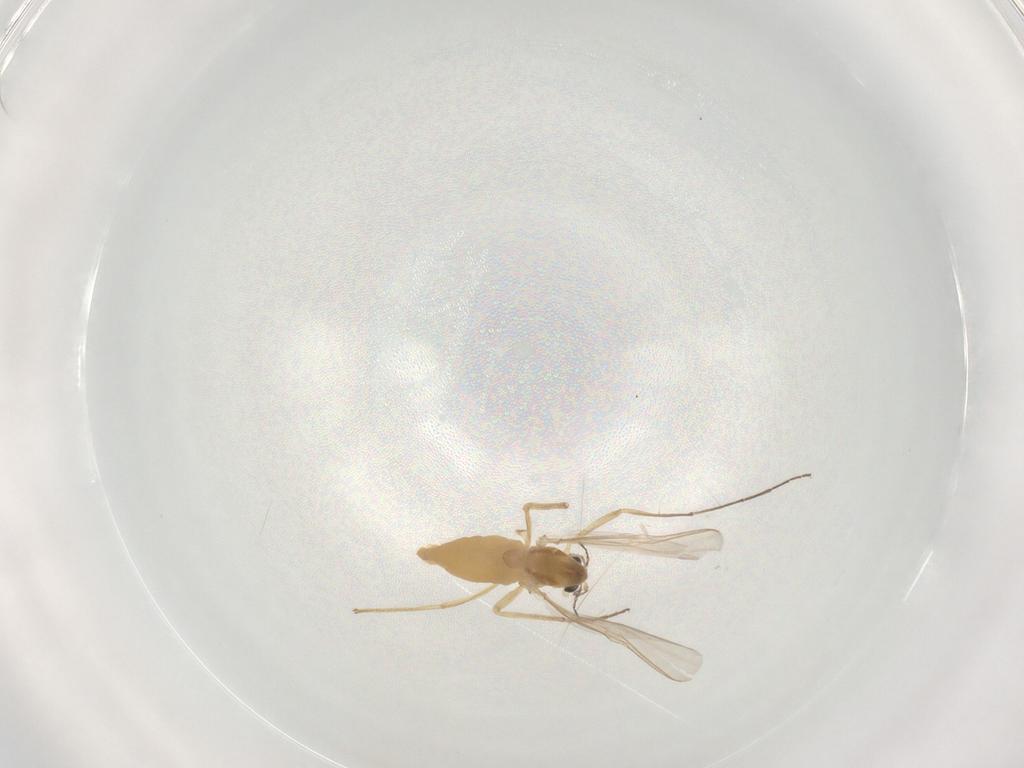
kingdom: Animalia
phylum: Arthropoda
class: Insecta
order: Diptera
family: Chironomidae
